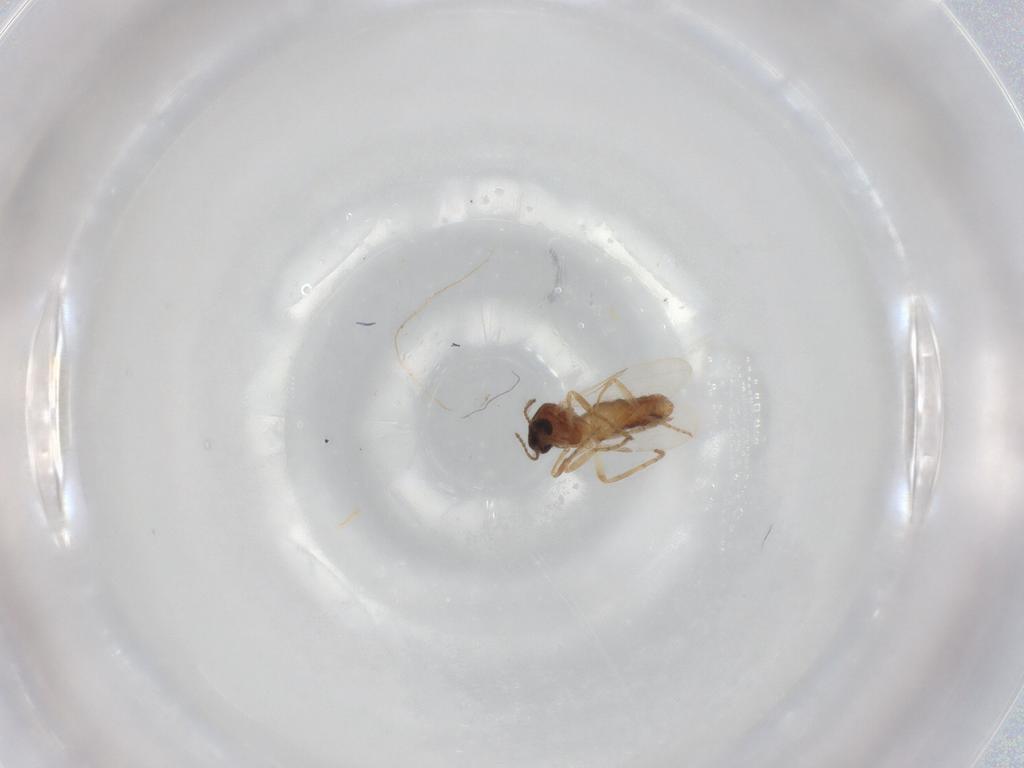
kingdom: Animalia
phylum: Arthropoda
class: Insecta
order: Diptera
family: Ceratopogonidae
